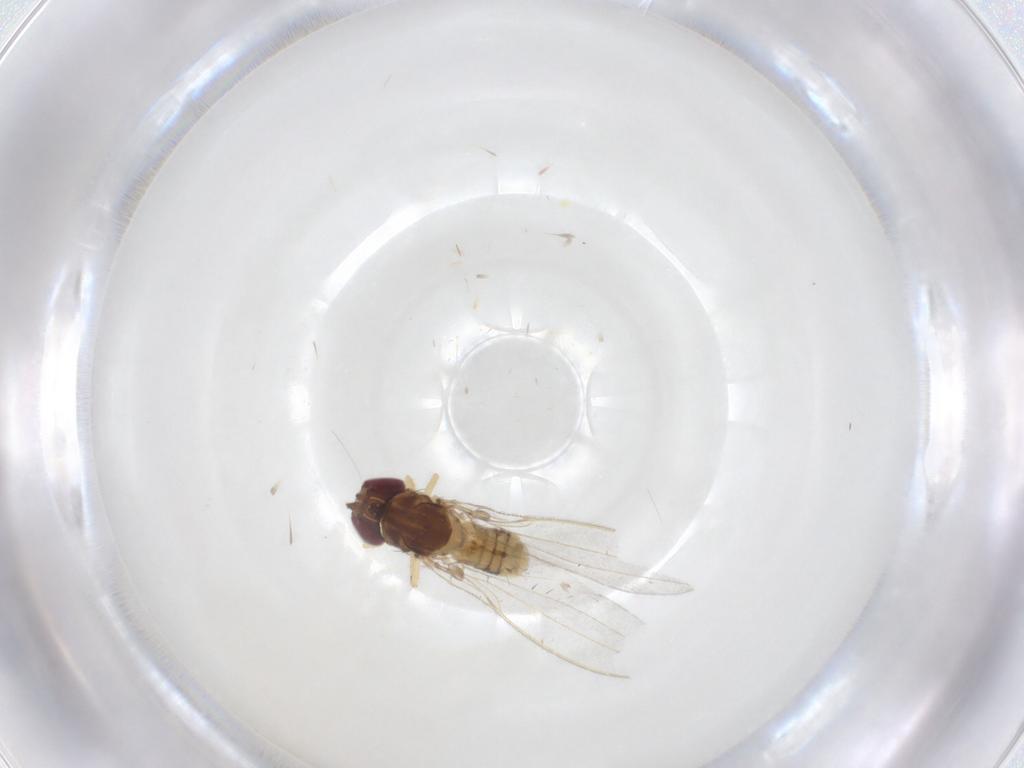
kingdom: Animalia
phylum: Arthropoda
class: Insecta
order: Diptera
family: Asteiidae
